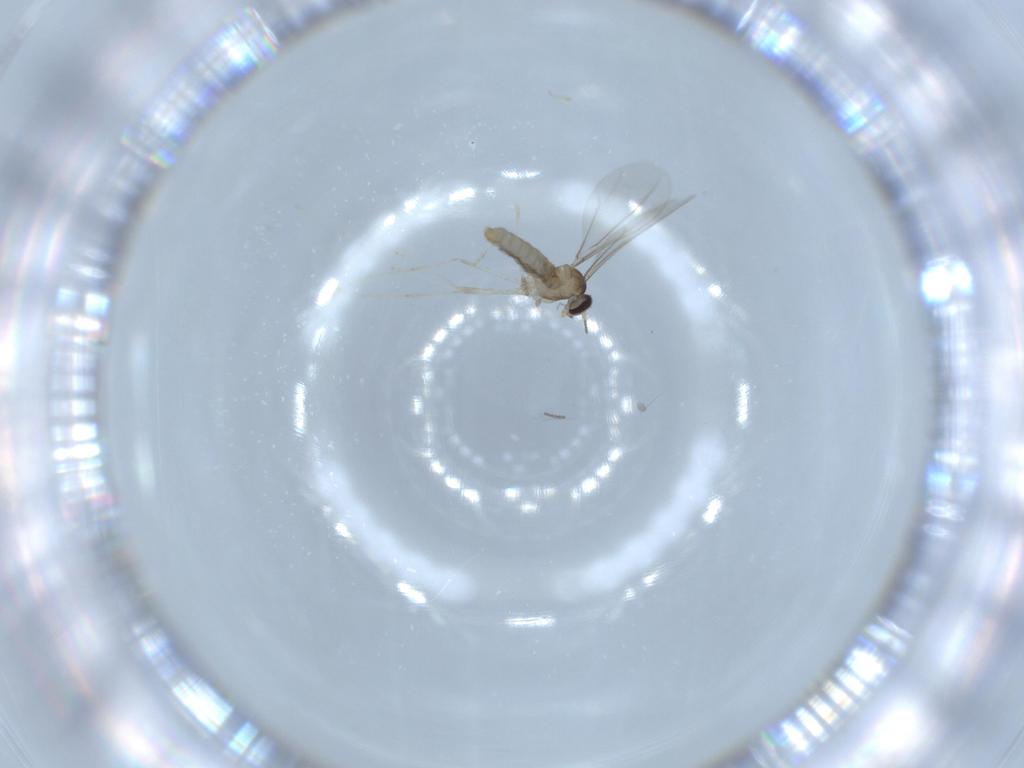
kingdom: Animalia
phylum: Arthropoda
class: Insecta
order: Diptera
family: Cecidomyiidae
